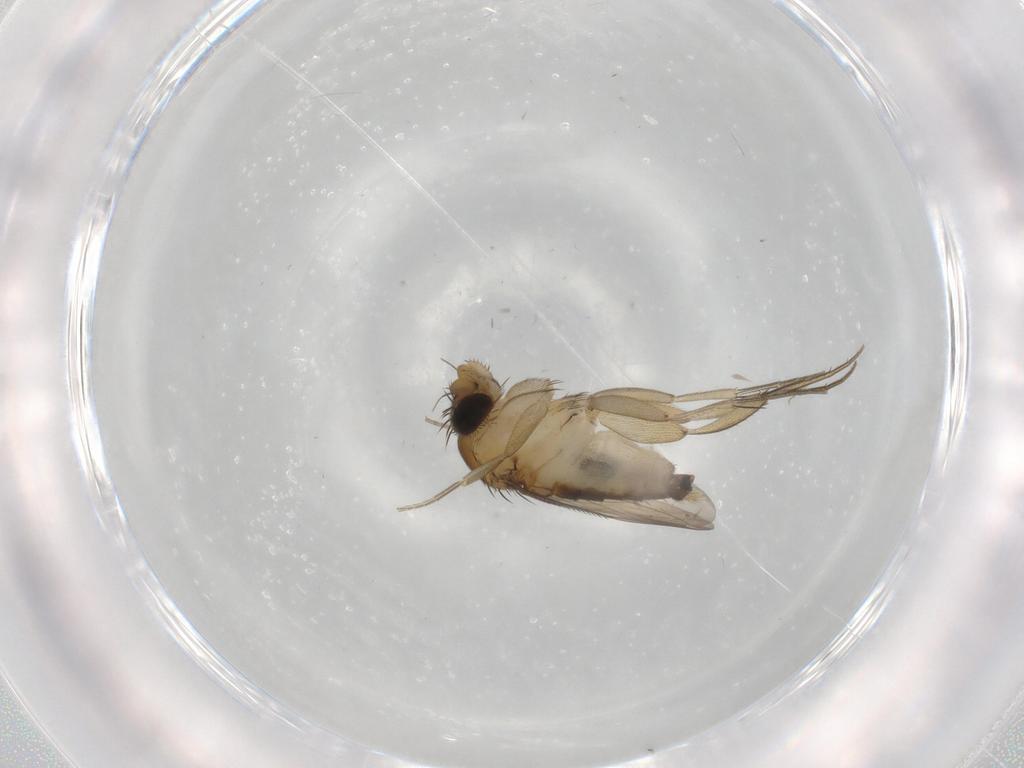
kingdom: Animalia
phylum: Arthropoda
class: Insecta
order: Diptera
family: Phoridae
